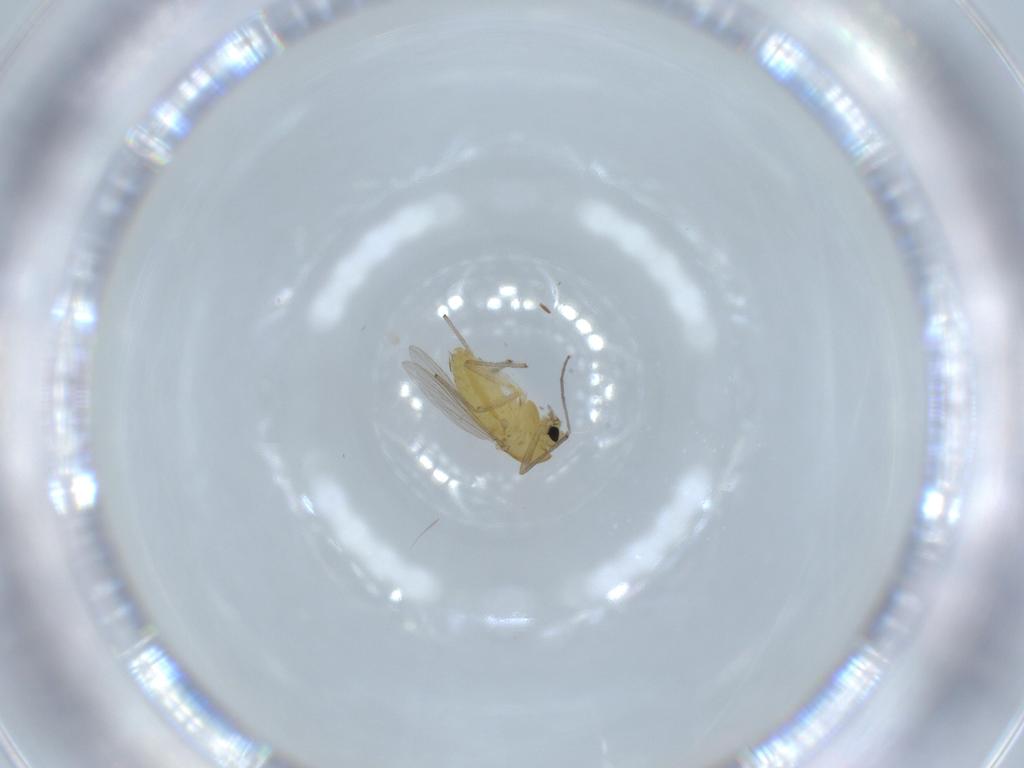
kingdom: Animalia
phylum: Arthropoda
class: Insecta
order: Diptera
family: Chironomidae
